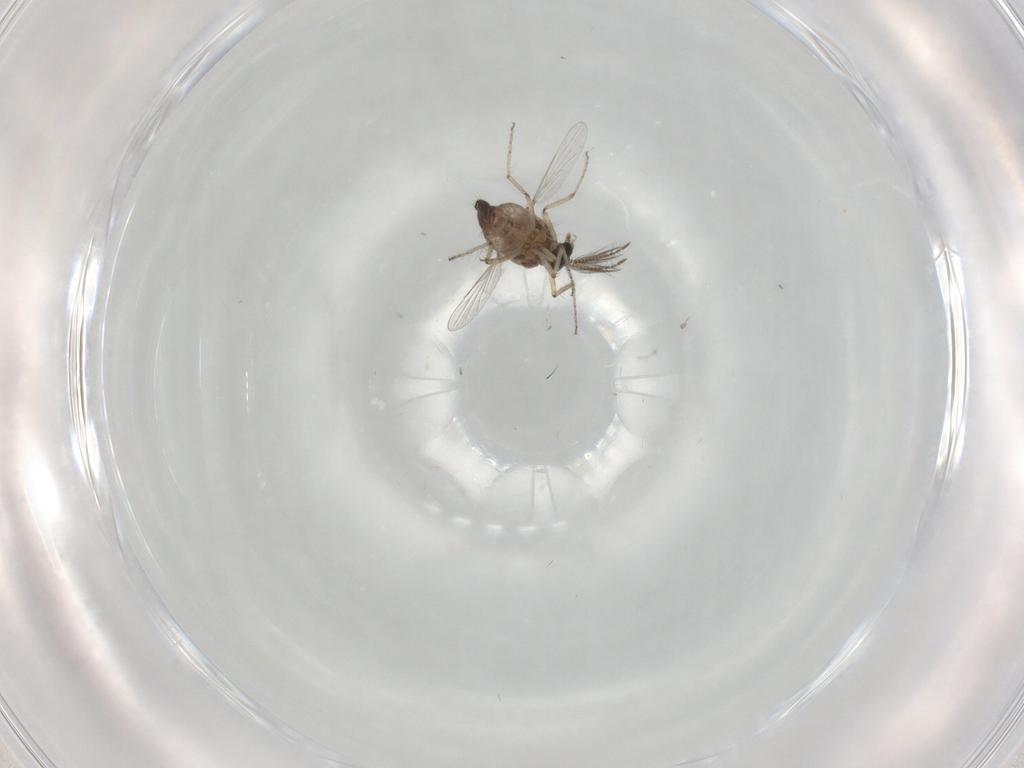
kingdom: Animalia
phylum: Arthropoda
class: Insecta
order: Diptera
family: Ceratopogonidae
